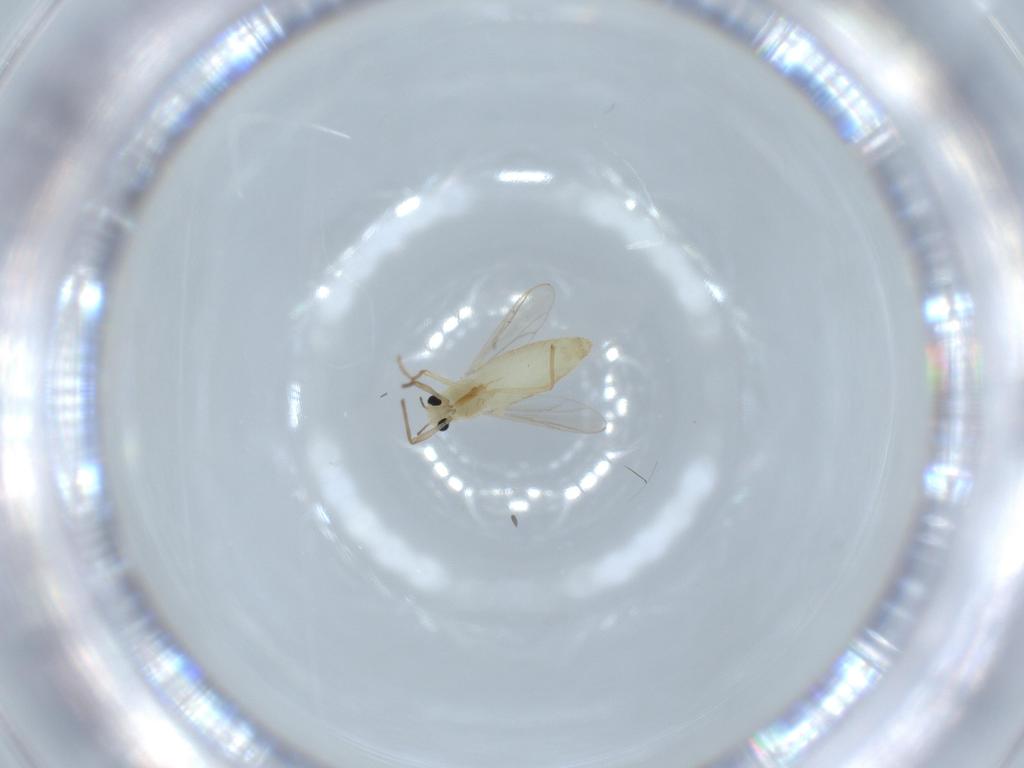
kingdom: Animalia
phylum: Arthropoda
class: Insecta
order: Diptera
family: Chironomidae
